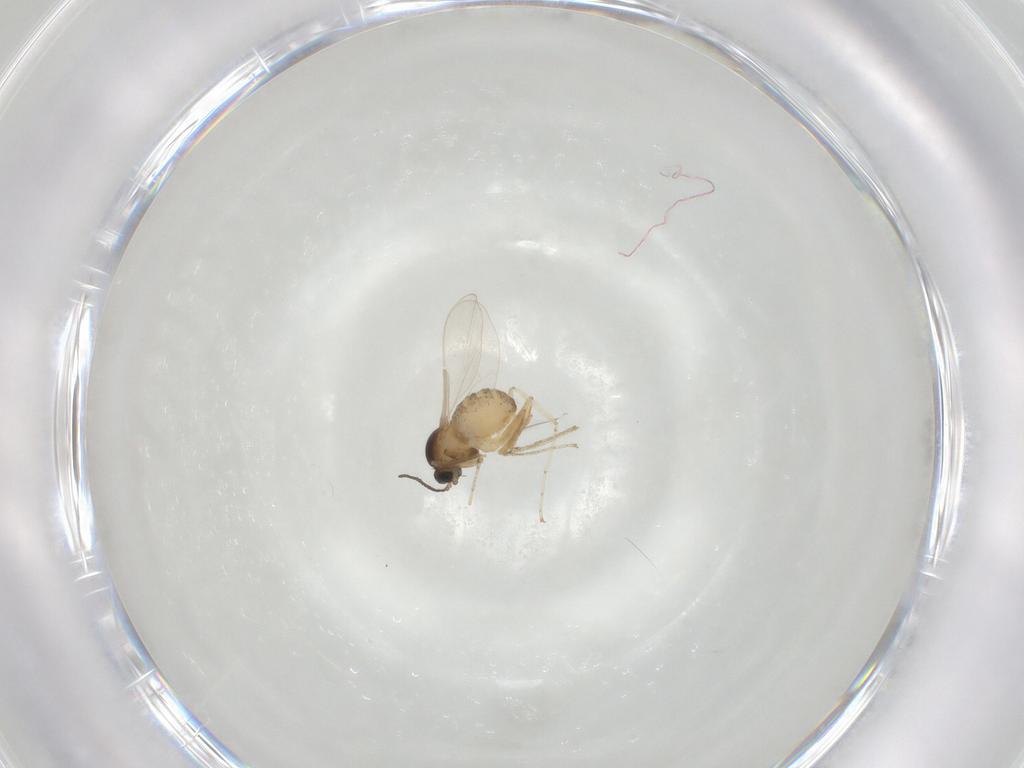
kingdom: Animalia
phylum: Arthropoda
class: Insecta
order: Diptera
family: Cecidomyiidae
